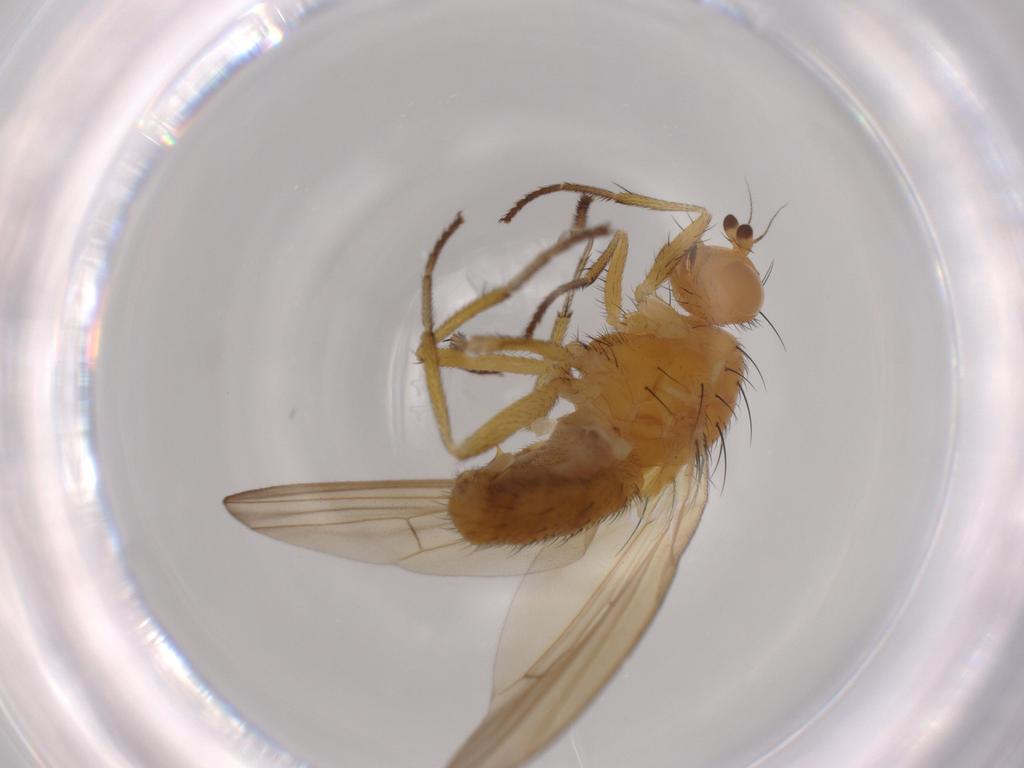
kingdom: Animalia
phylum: Arthropoda
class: Insecta
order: Diptera
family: Lauxaniidae
